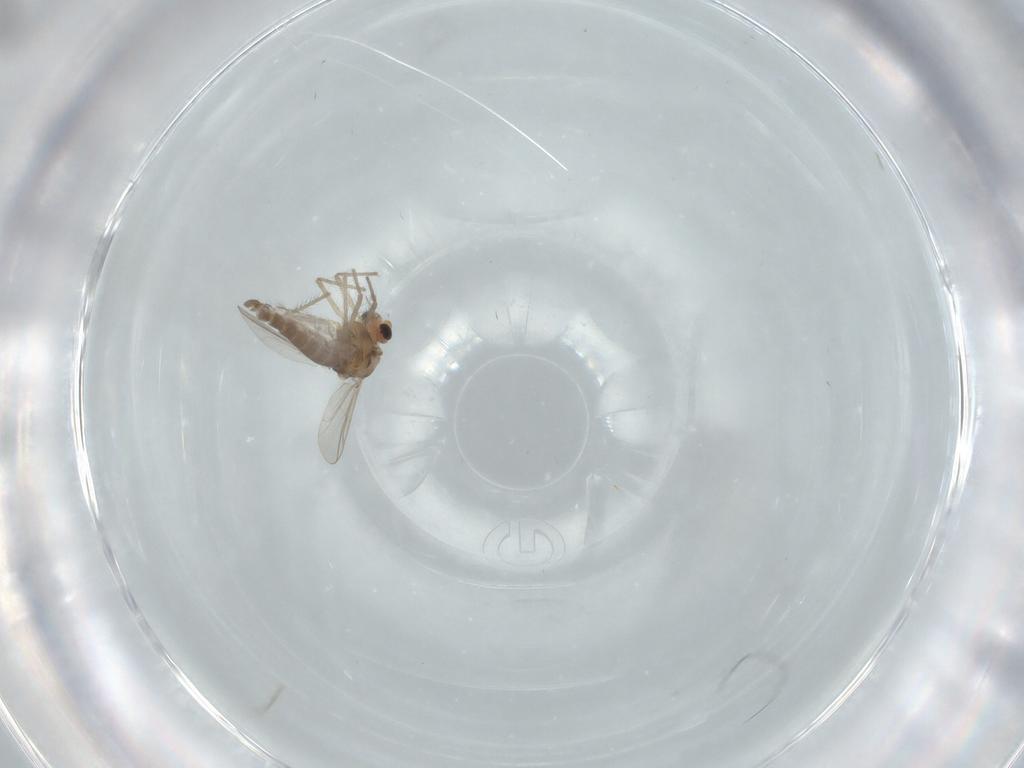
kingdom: Animalia
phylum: Arthropoda
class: Insecta
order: Diptera
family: Chironomidae
